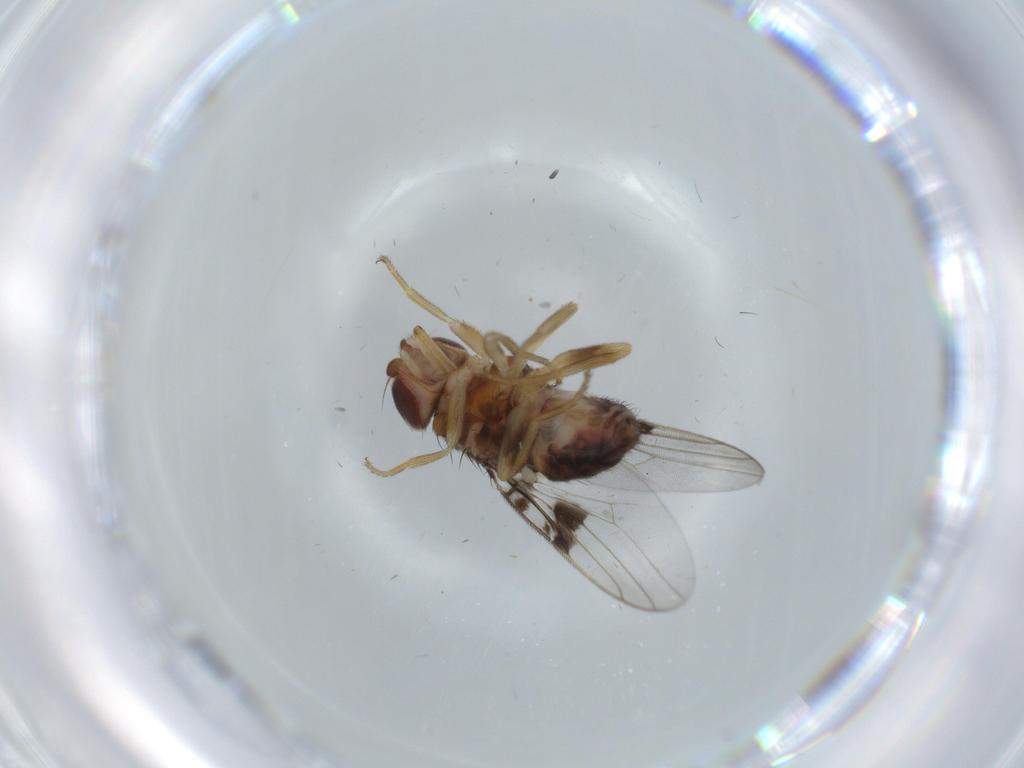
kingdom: Animalia
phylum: Arthropoda
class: Insecta
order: Diptera
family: Chloropidae
